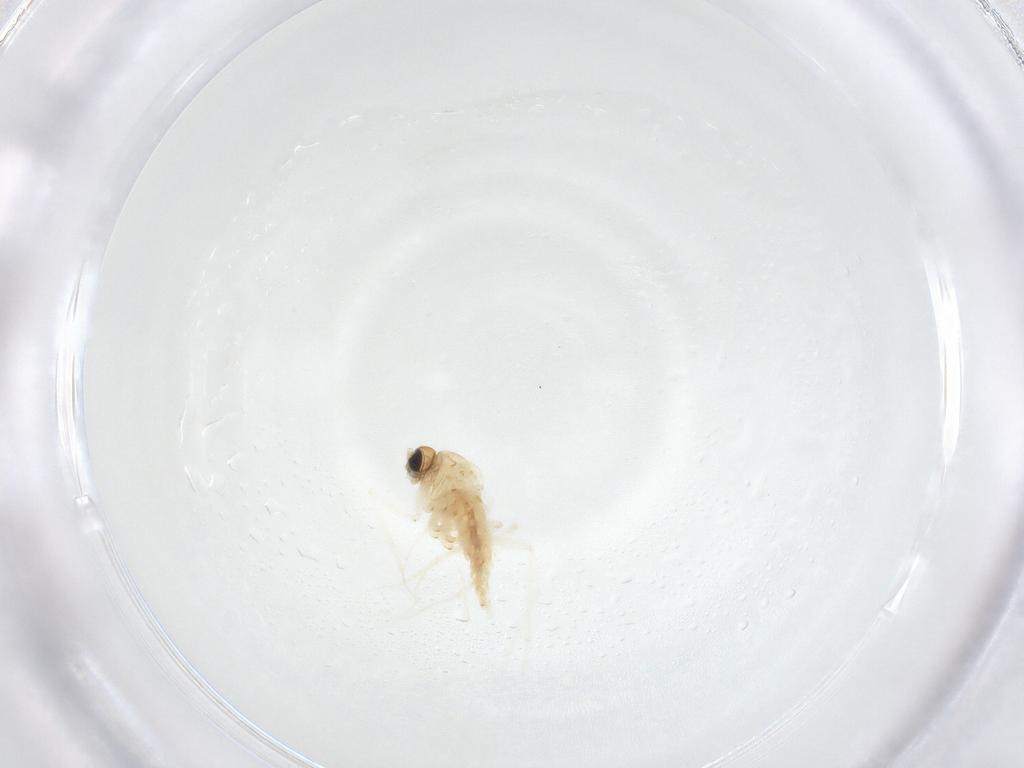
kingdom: Animalia
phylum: Arthropoda
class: Insecta
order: Diptera
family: Sciaridae
